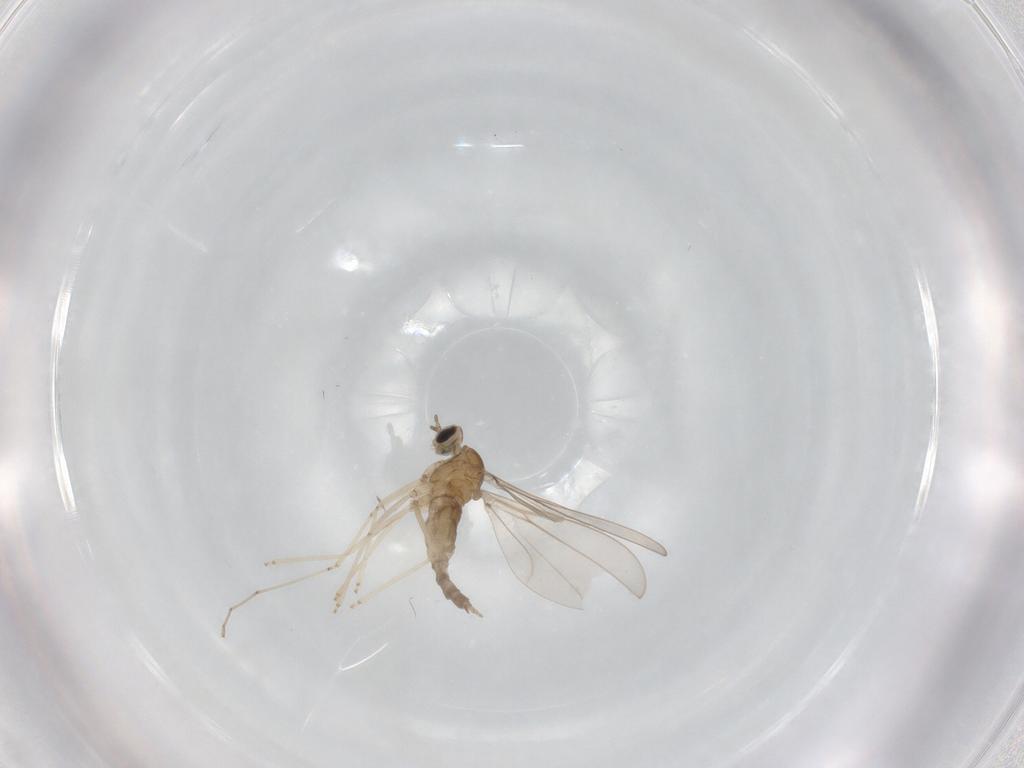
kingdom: Animalia
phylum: Arthropoda
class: Insecta
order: Diptera
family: Cecidomyiidae
